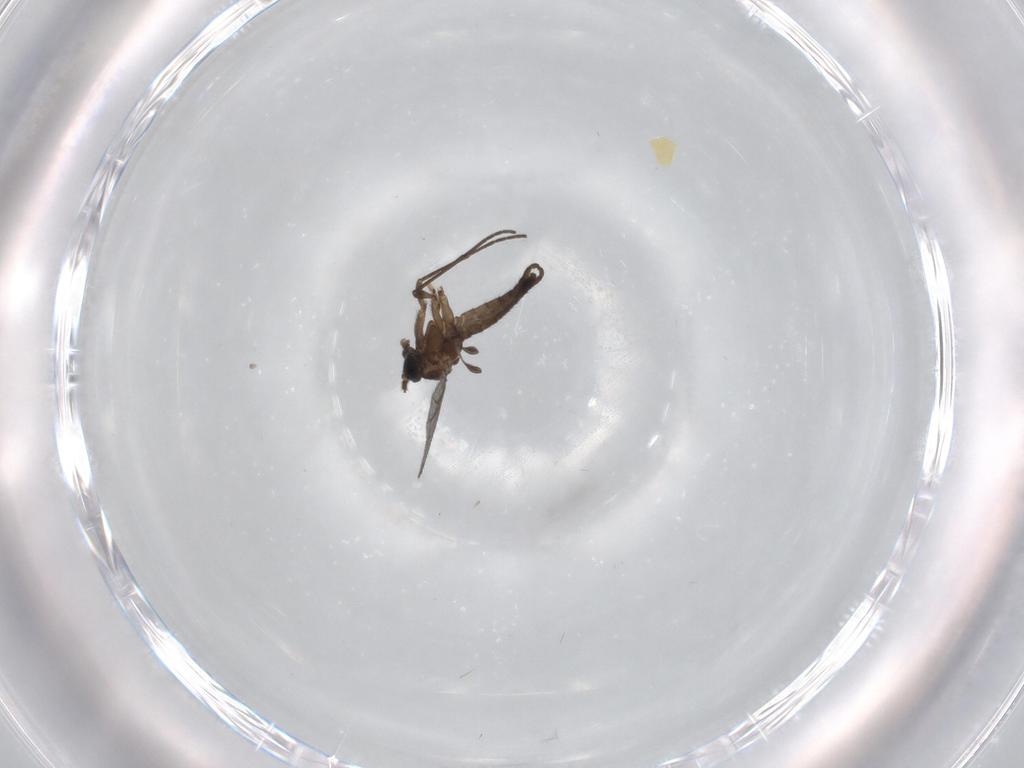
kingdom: Animalia
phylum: Arthropoda
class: Insecta
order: Diptera
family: Sciaridae
